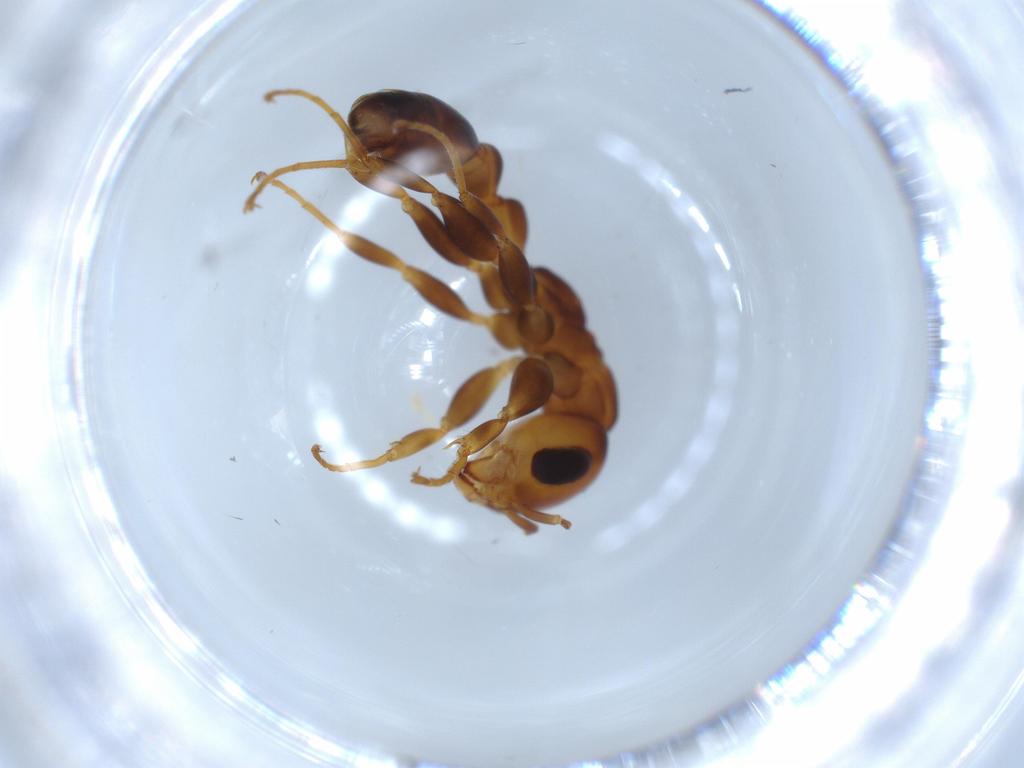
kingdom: Animalia
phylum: Arthropoda
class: Insecta
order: Hymenoptera
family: Formicidae
